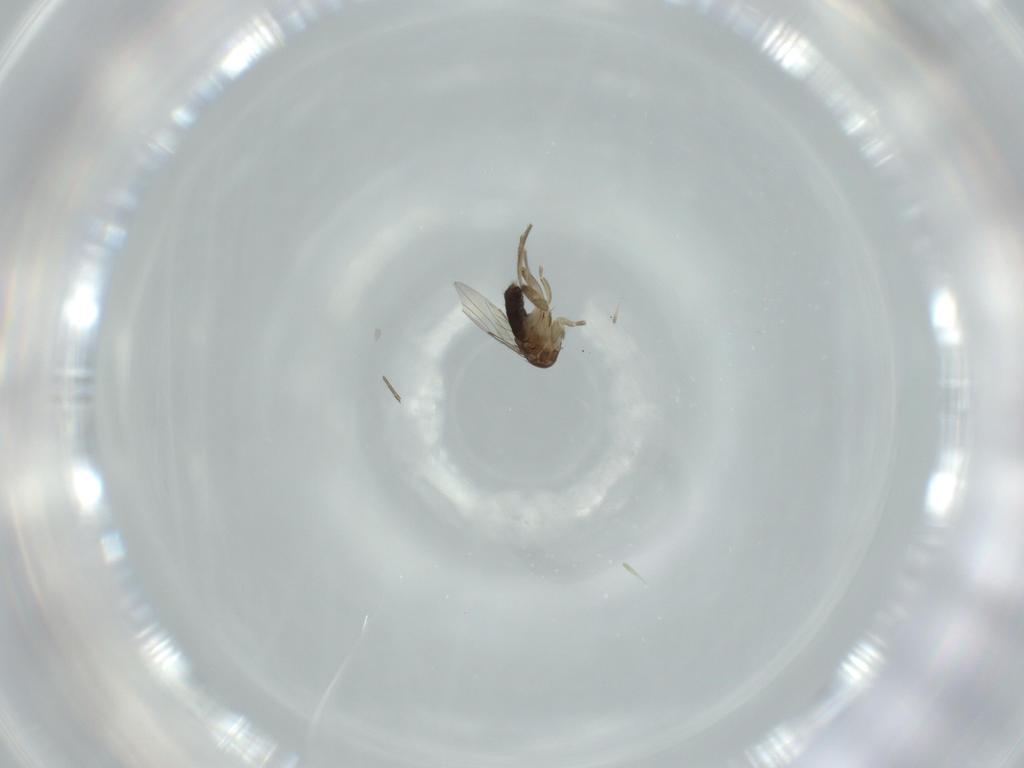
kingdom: Animalia
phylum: Arthropoda
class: Insecta
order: Diptera
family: Phoridae
